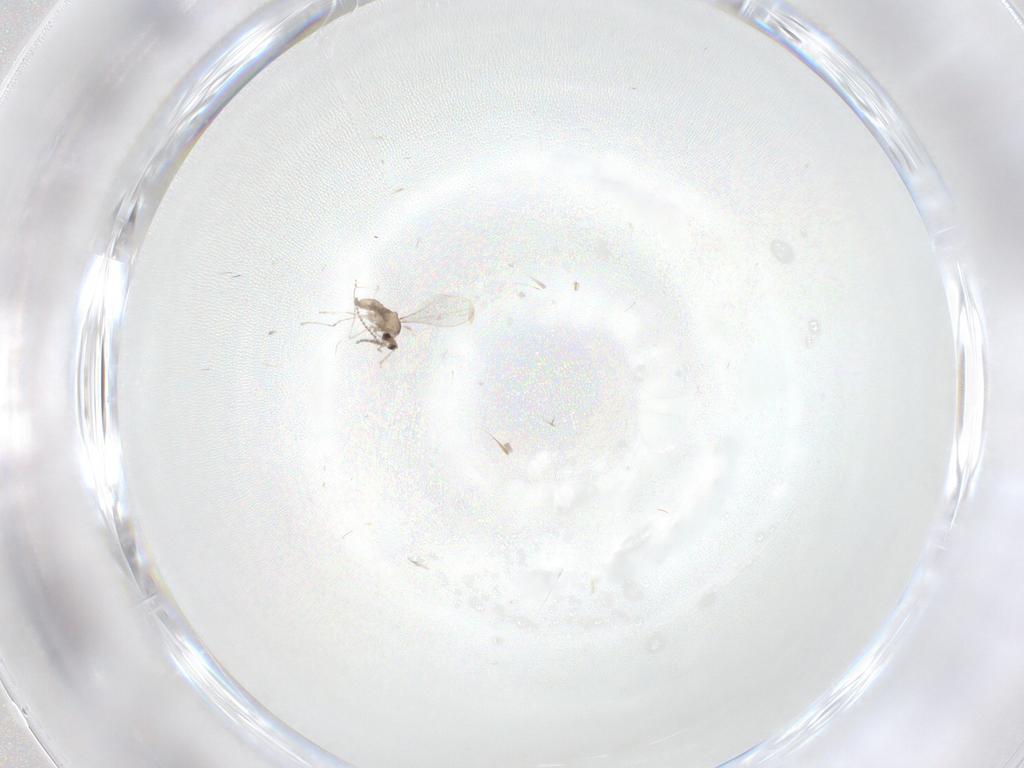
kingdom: Animalia
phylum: Arthropoda
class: Insecta
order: Diptera
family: Cecidomyiidae
